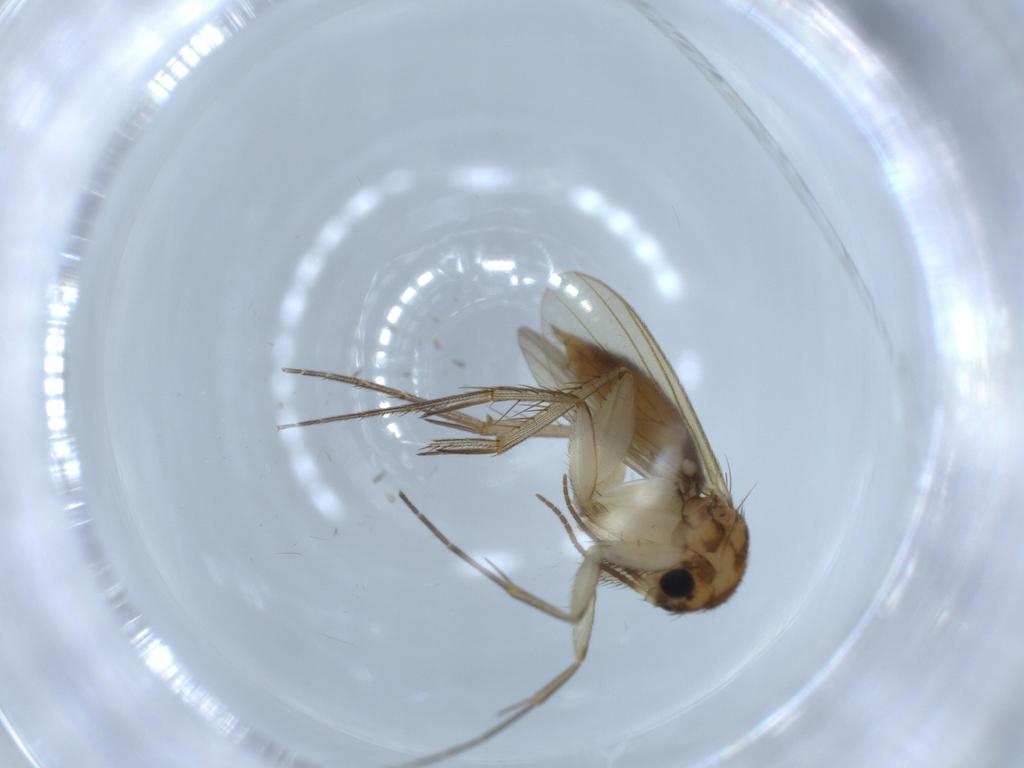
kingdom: Animalia
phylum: Arthropoda
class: Insecta
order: Diptera
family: Mycetophilidae
